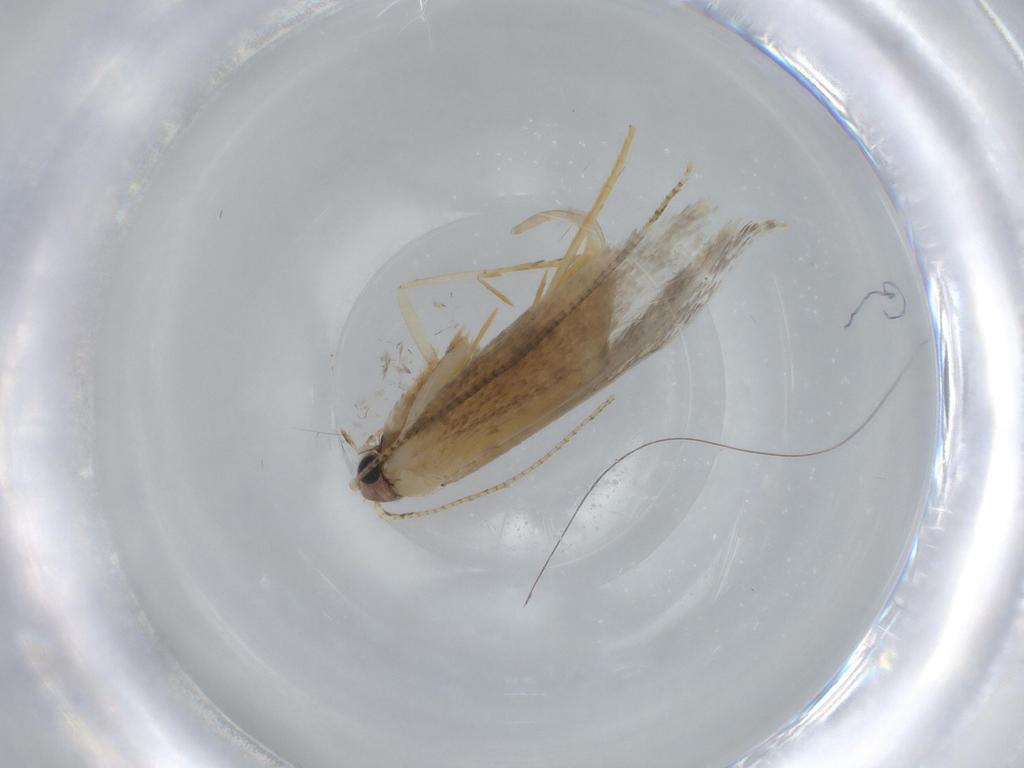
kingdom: Animalia
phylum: Arthropoda
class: Insecta
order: Lepidoptera
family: Tineidae
